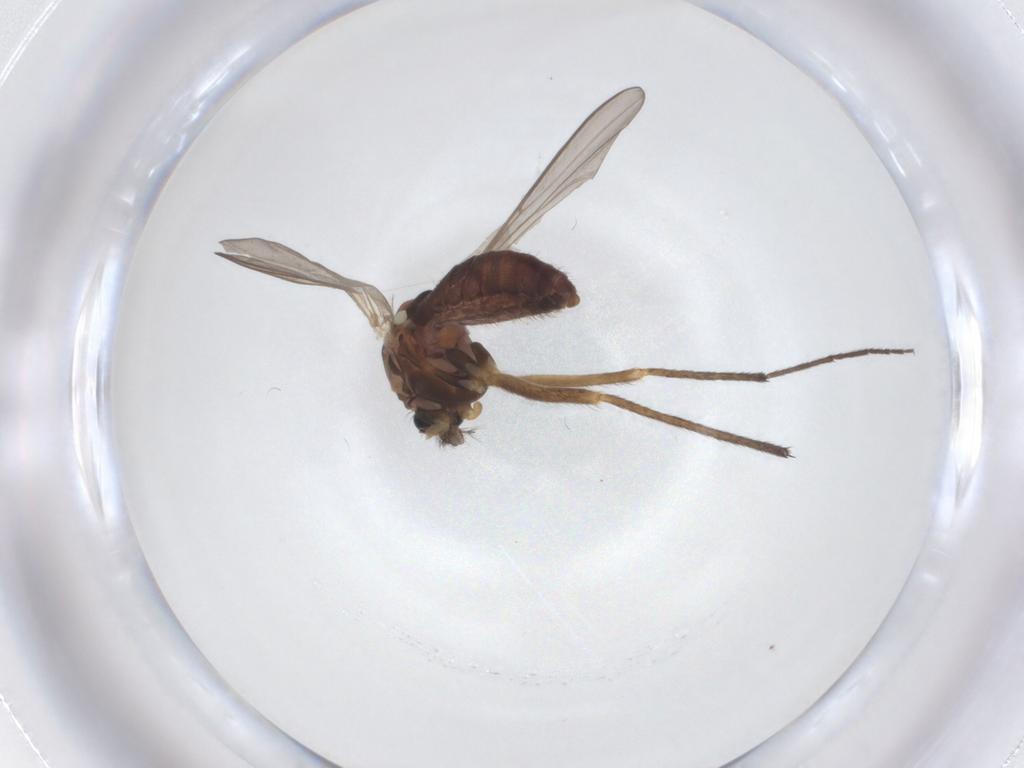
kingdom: Animalia
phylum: Arthropoda
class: Insecta
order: Diptera
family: Chironomidae
